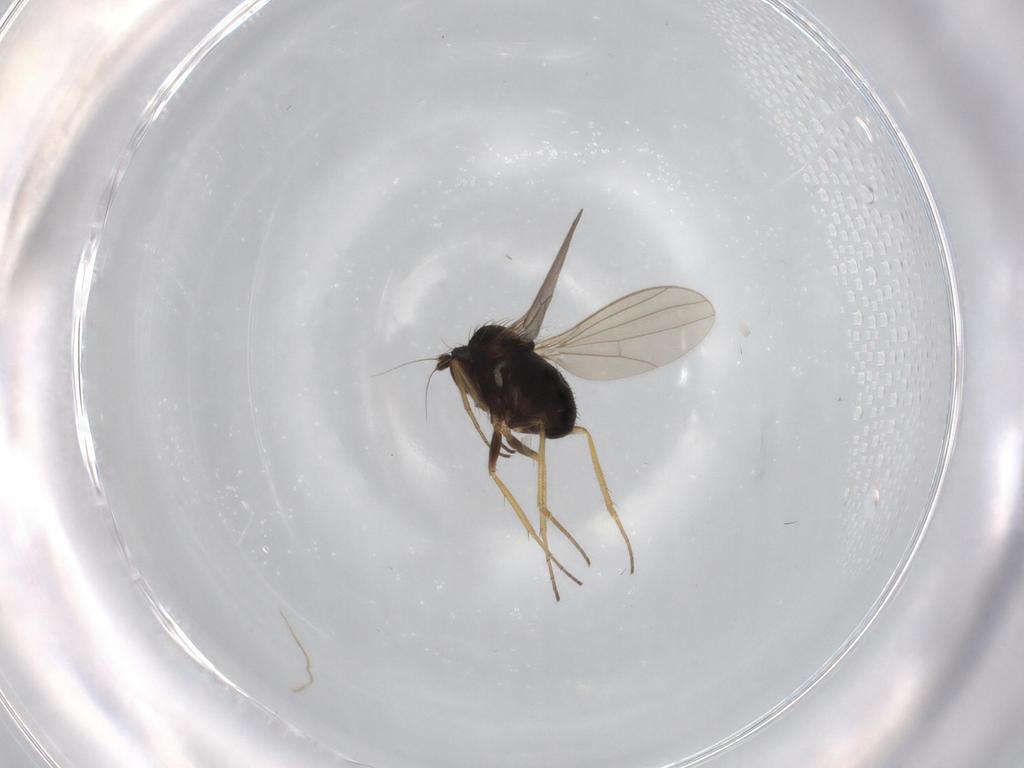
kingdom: Animalia
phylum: Arthropoda
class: Insecta
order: Diptera
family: Dolichopodidae
